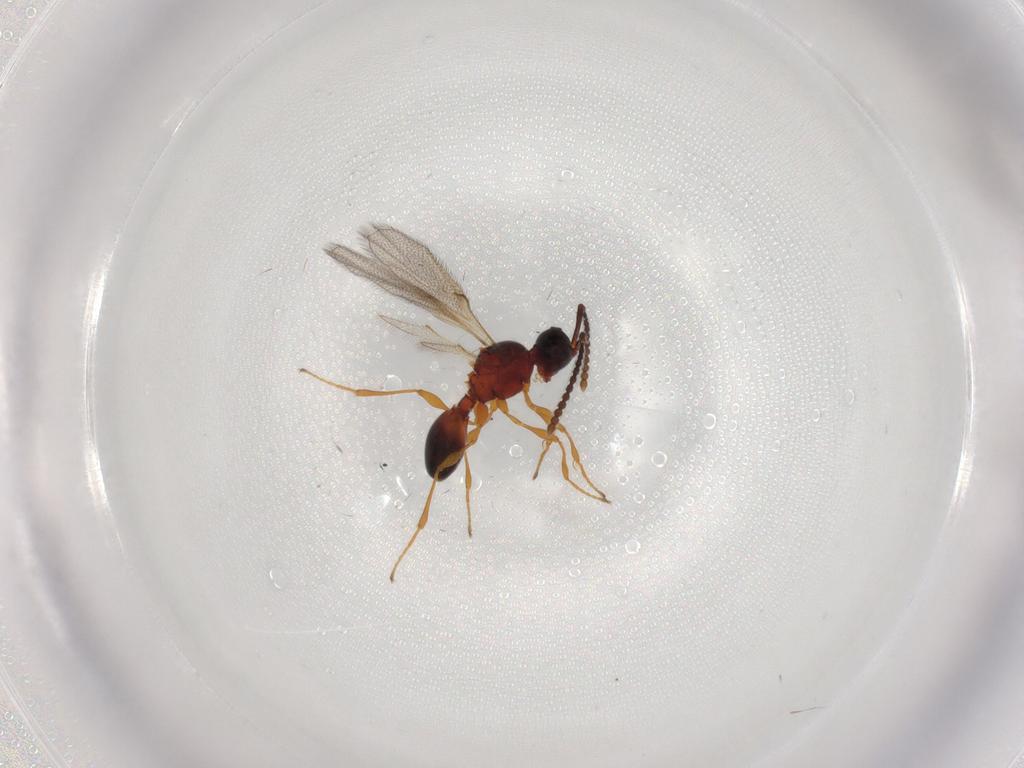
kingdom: Animalia
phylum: Arthropoda
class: Insecta
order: Hymenoptera
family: Diapriidae
